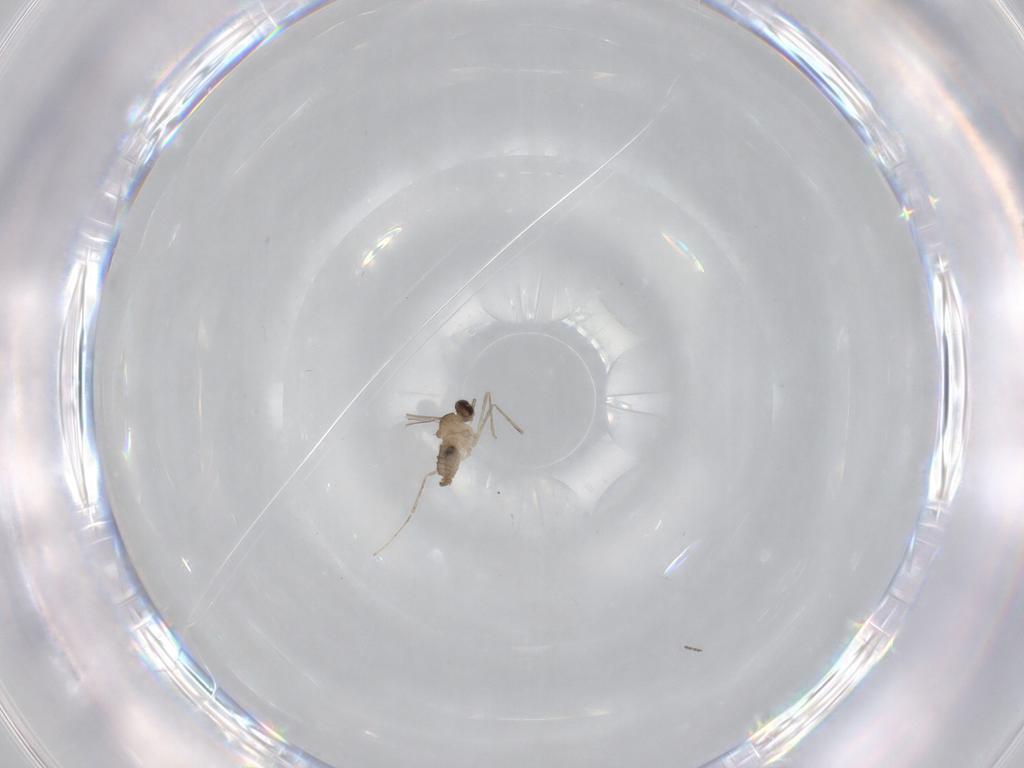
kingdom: Animalia
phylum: Arthropoda
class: Insecta
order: Diptera
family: Cecidomyiidae
